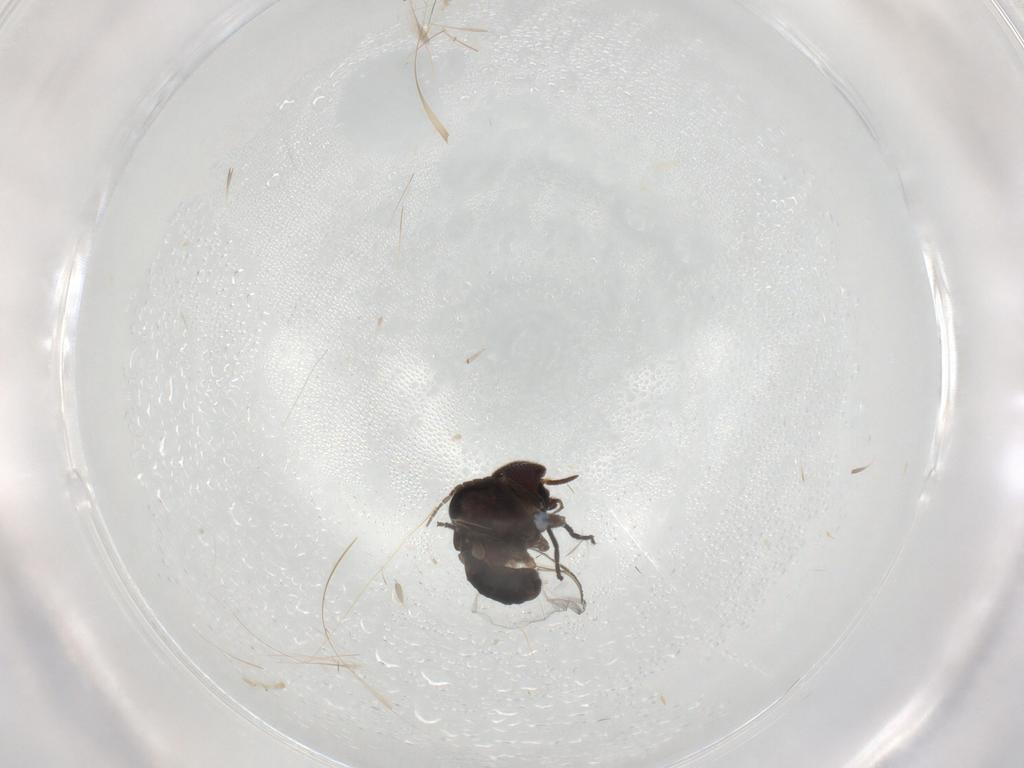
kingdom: Animalia
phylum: Arthropoda
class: Insecta
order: Diptera
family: Simuliidae
